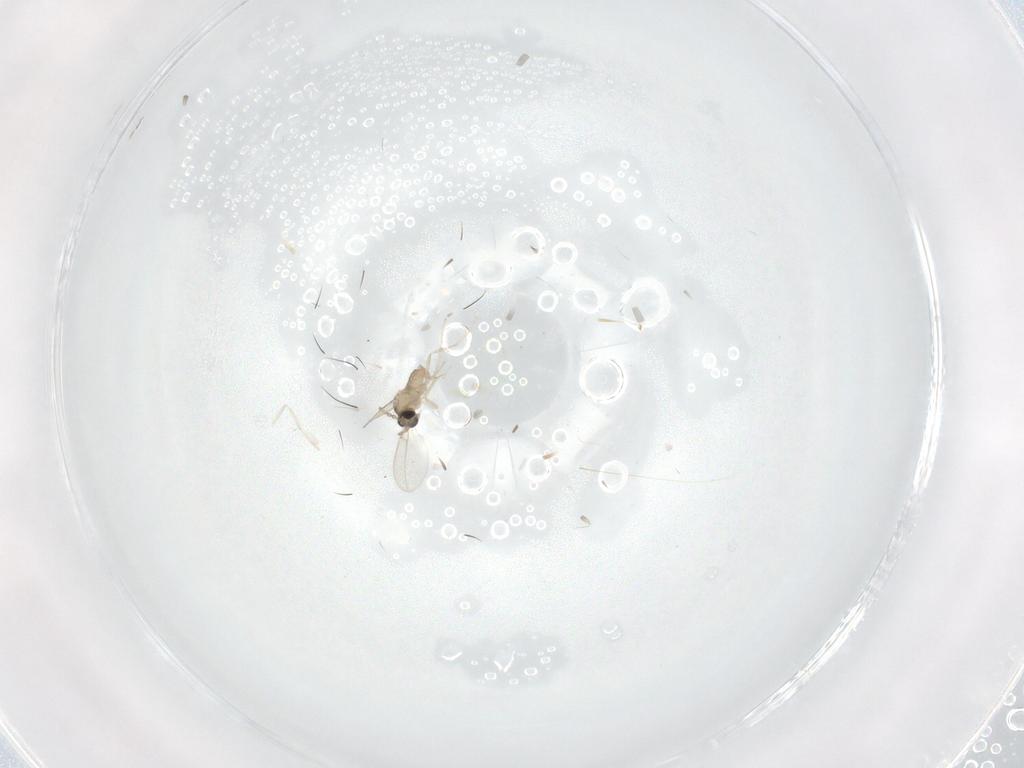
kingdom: Animalia
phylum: Arthropoda
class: Insecta
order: Diptera
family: Cecidomyiidae
